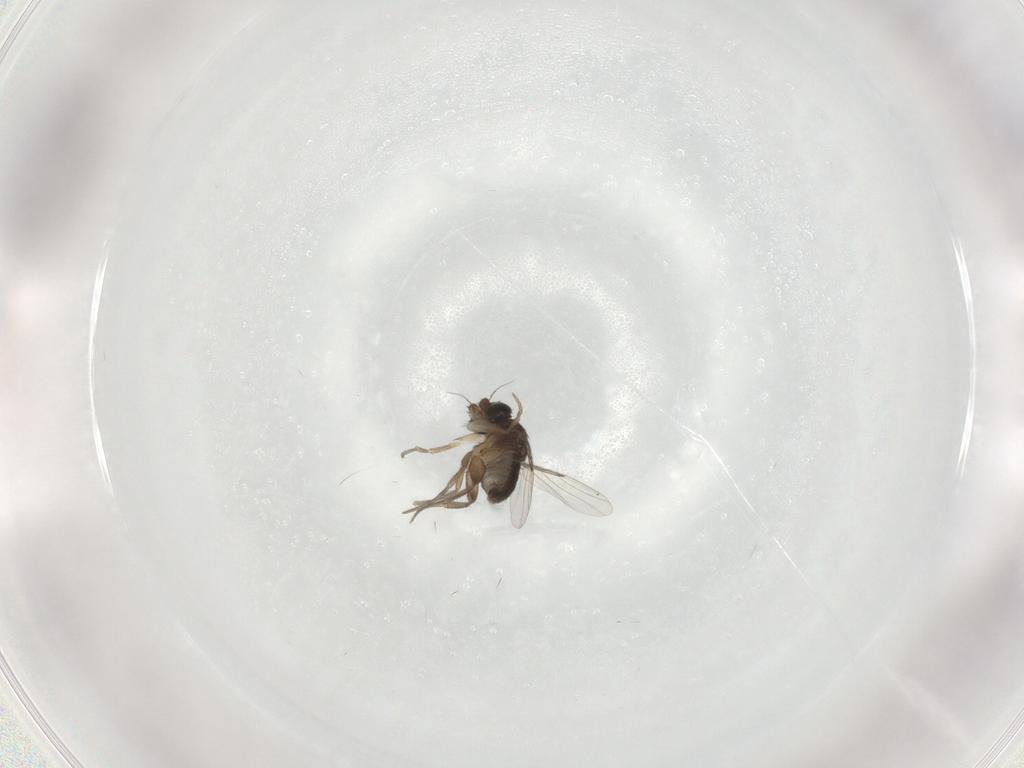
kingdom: Animalia
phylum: Arthropoda
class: Insecta
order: Diptera
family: Phoridae
